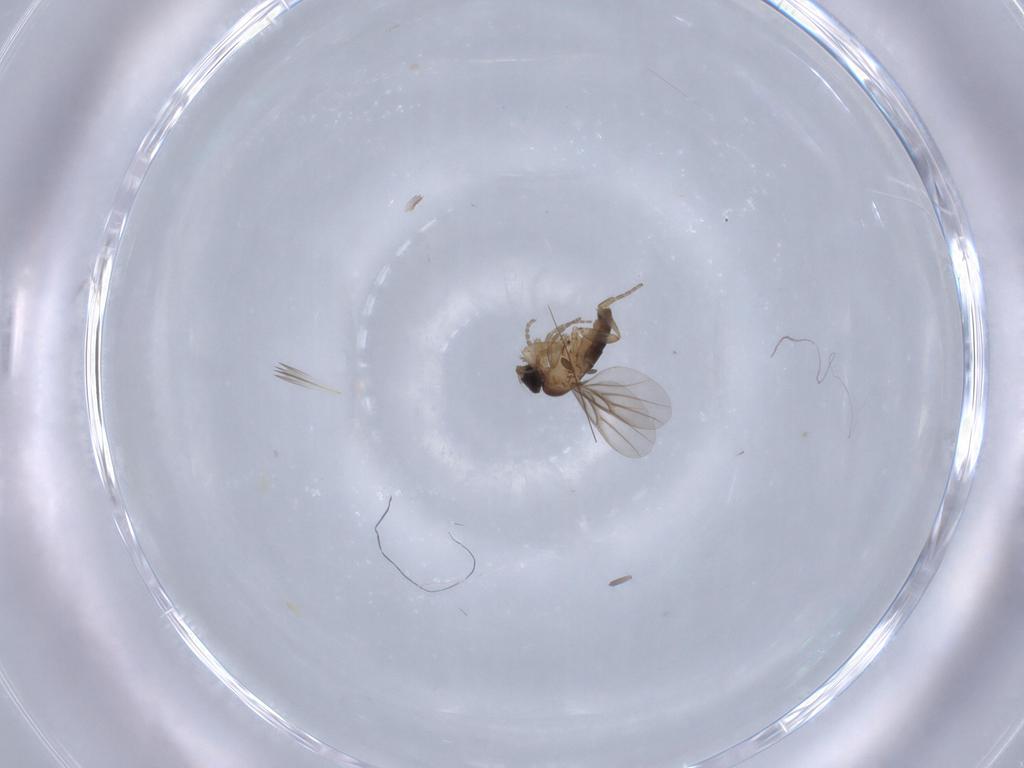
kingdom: Animalia
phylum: Arthropoda
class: Insecta
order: Diptera
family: Phoridae
